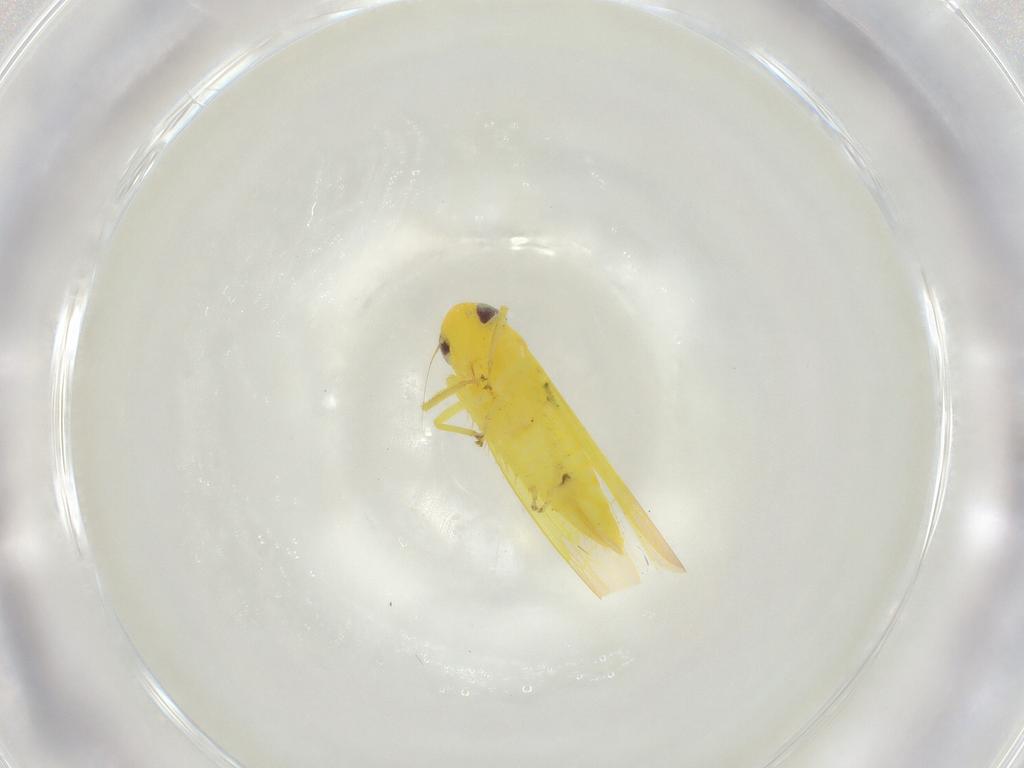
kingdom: Animalia
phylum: Arthropoda
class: Insecta
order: Hemiptera
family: Cicadellidae
